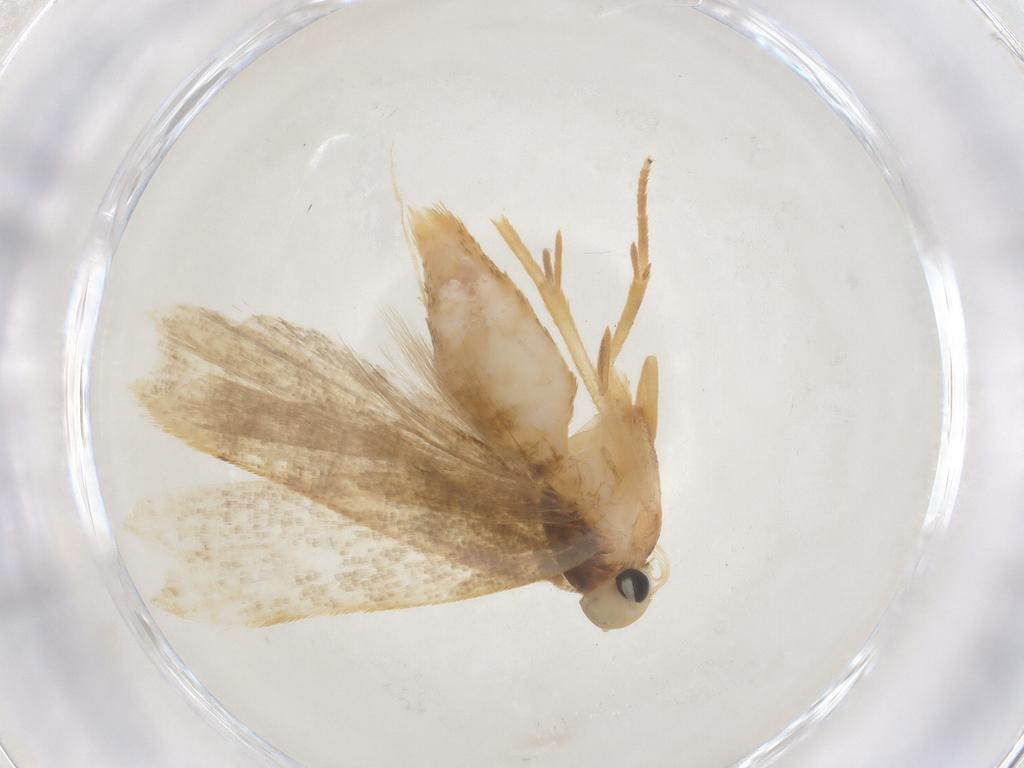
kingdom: Animalia
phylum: Arthropoda
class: Insecta
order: Lepidoptera
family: Gelechiidae
